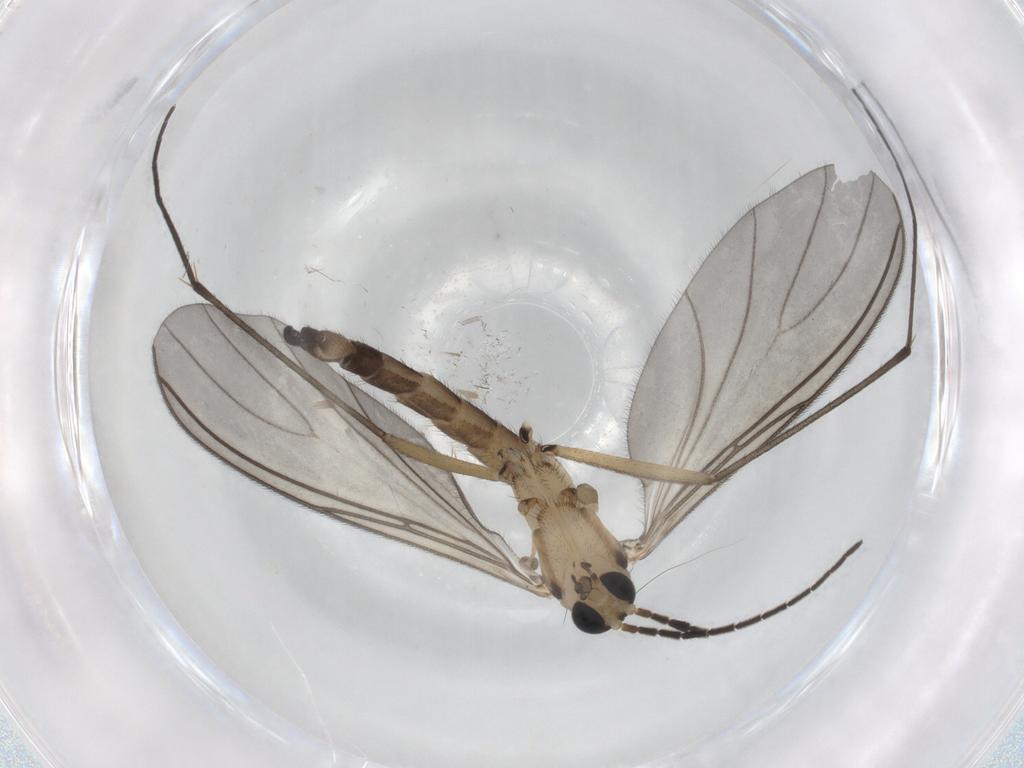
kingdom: Animalia
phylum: Arthropoda
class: Insecta
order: Diptera
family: Sciaridae
